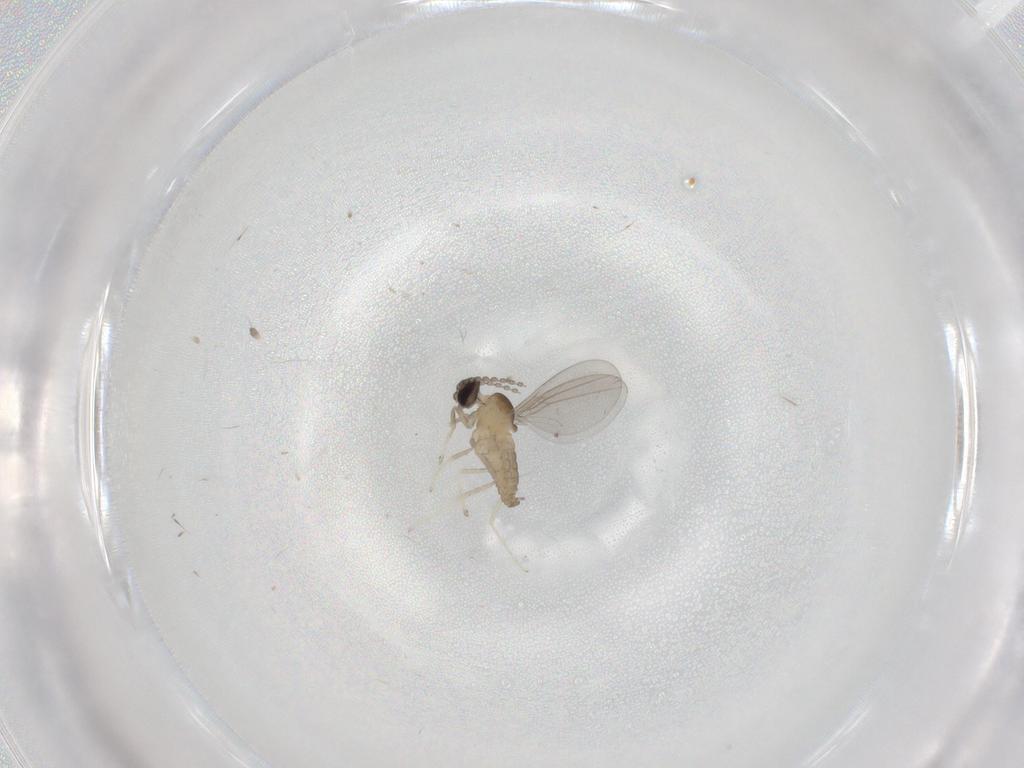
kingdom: Animalia
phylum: Arthropoda
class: Insecta
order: Diptera
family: Cecidomyiidae
